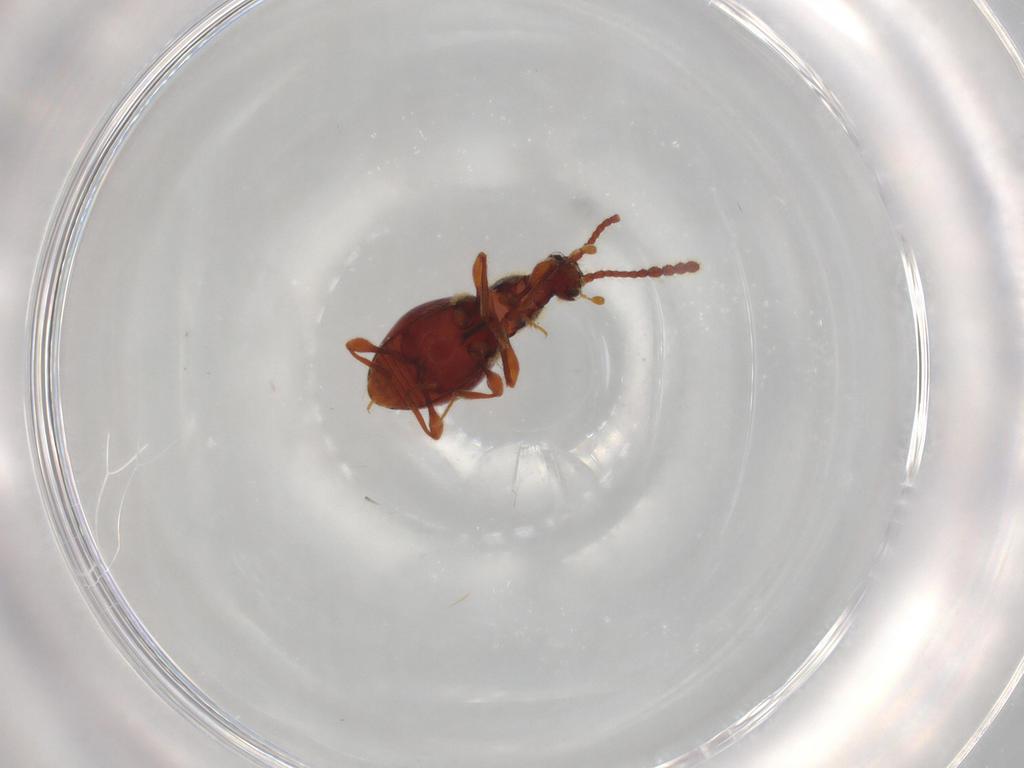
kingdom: Animalia
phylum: Arthropoda
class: Insecta
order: Coleoptera
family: Staphylinidae
